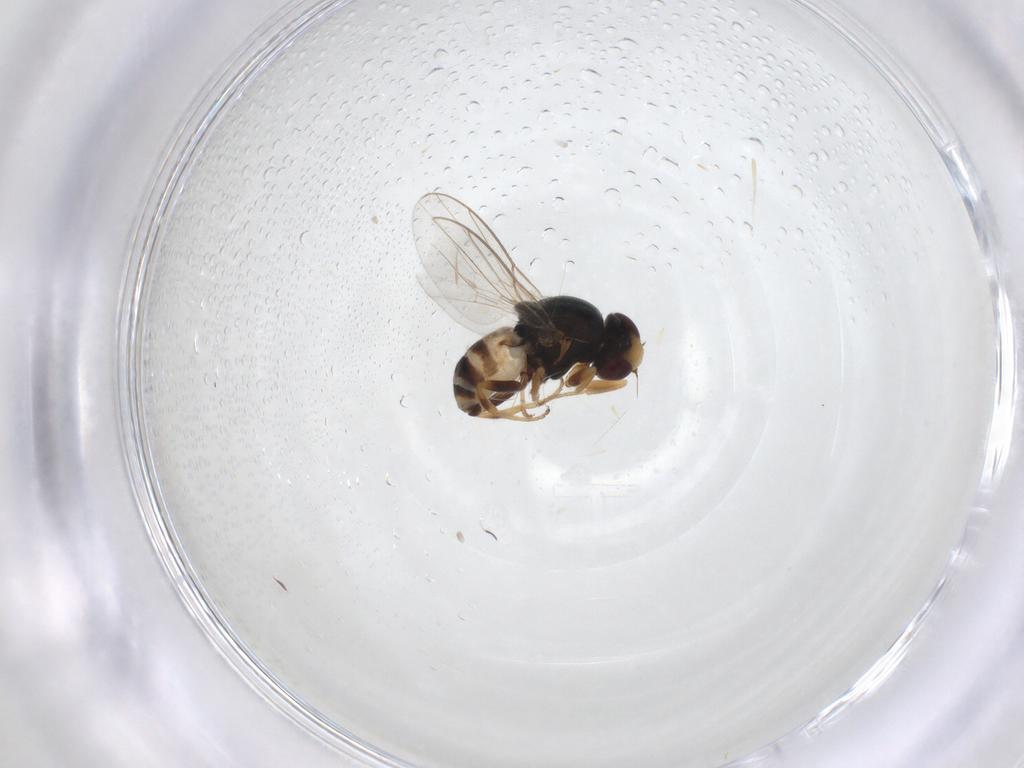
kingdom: Animalia
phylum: Arthropoda
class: Insecta
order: Diptera
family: Chloropidae
